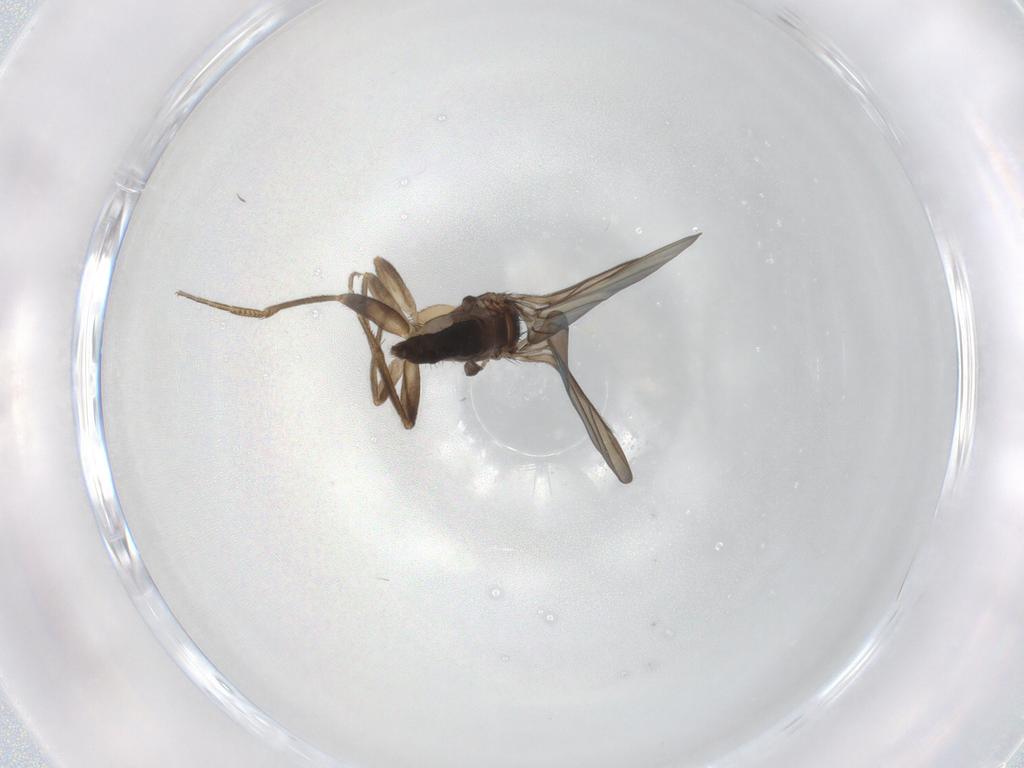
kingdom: Animalia
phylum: Arthropoda
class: Insecta
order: Diptera
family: Phoridae
